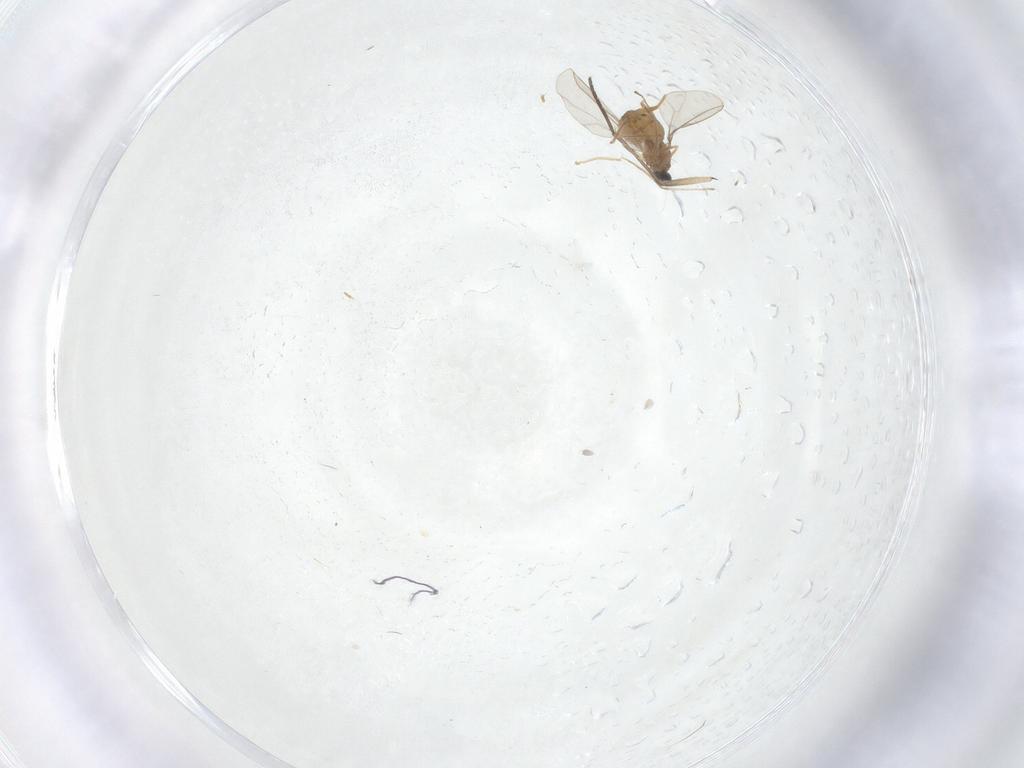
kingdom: Animalia
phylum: Arthropoda
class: Insecta
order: Diptera
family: Cecidomyiidae
